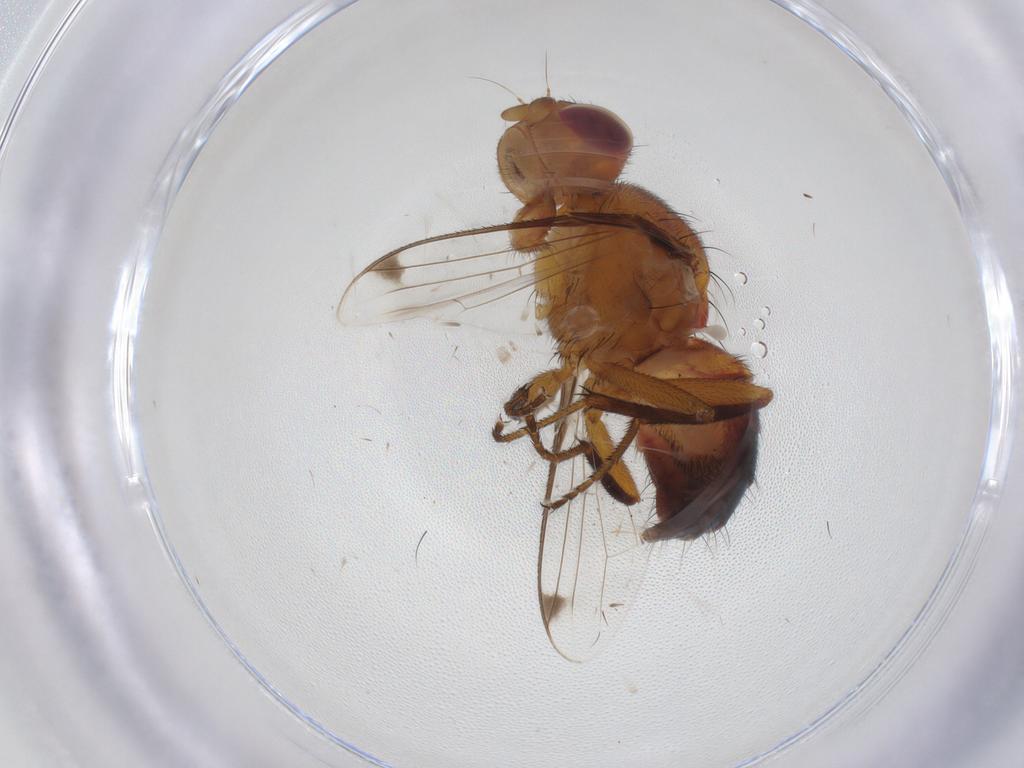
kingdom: Animalia
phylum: Arthropoda
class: Insecta
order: Diptera
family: Richardiidae
